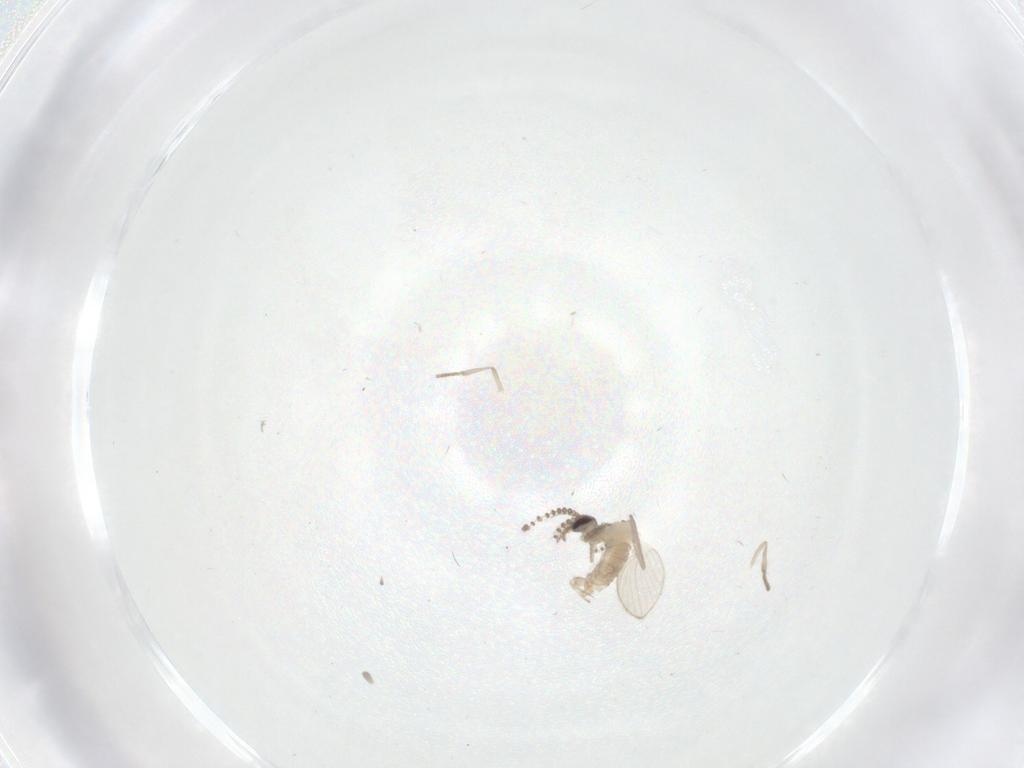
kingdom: Animalia
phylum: Arthropoda
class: Insecta
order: Diptera
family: Psychodidae
